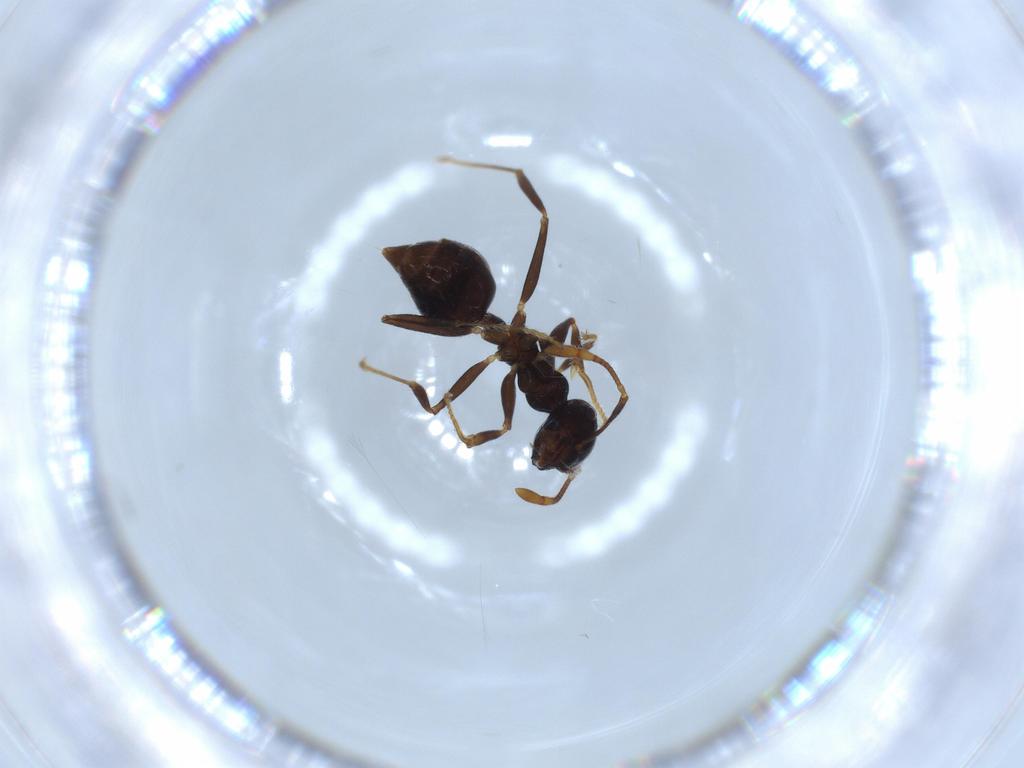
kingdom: Animalia
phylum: Arthropoda
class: Insecta
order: Hymenoptera
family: Formicidae
